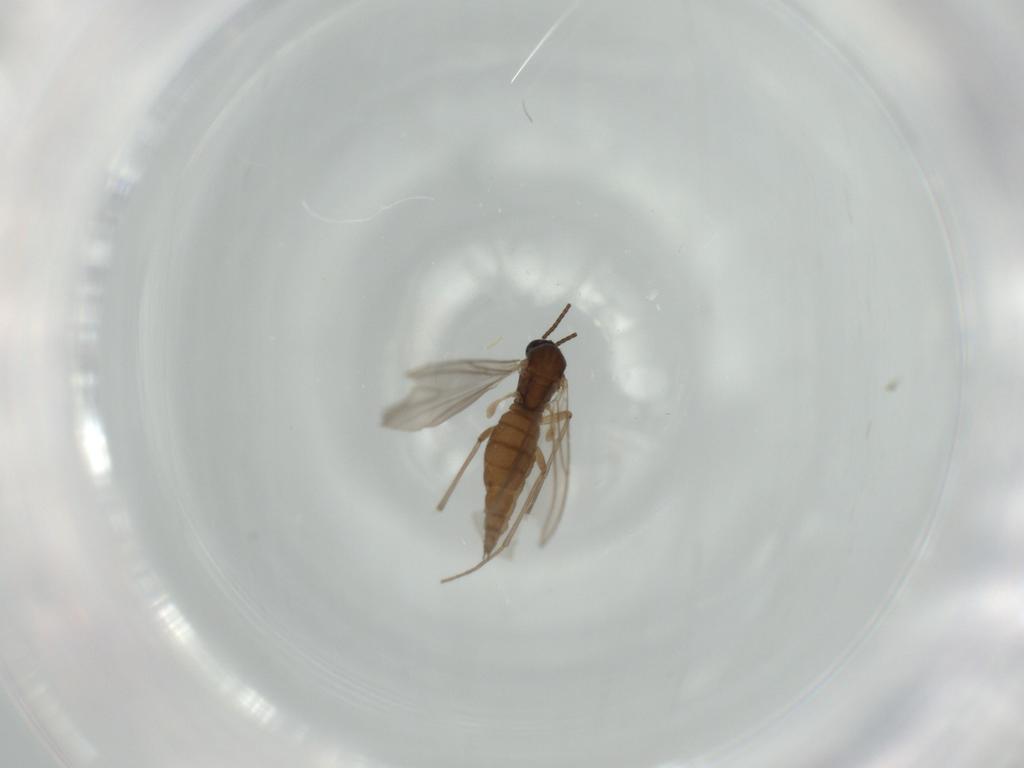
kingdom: Animalia
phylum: Arthropoda
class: Insecta
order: Diptera
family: Sciaridae
